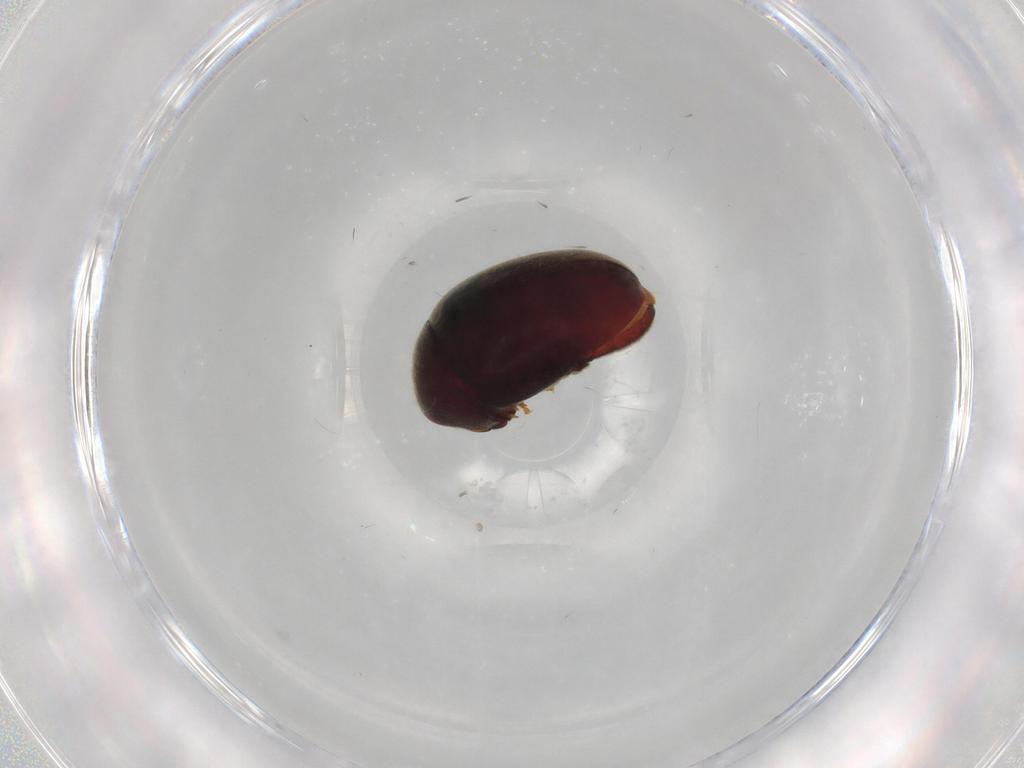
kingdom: Animalia
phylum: Arthropoda
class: Insecta
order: Coleoptera
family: Ptinidae
